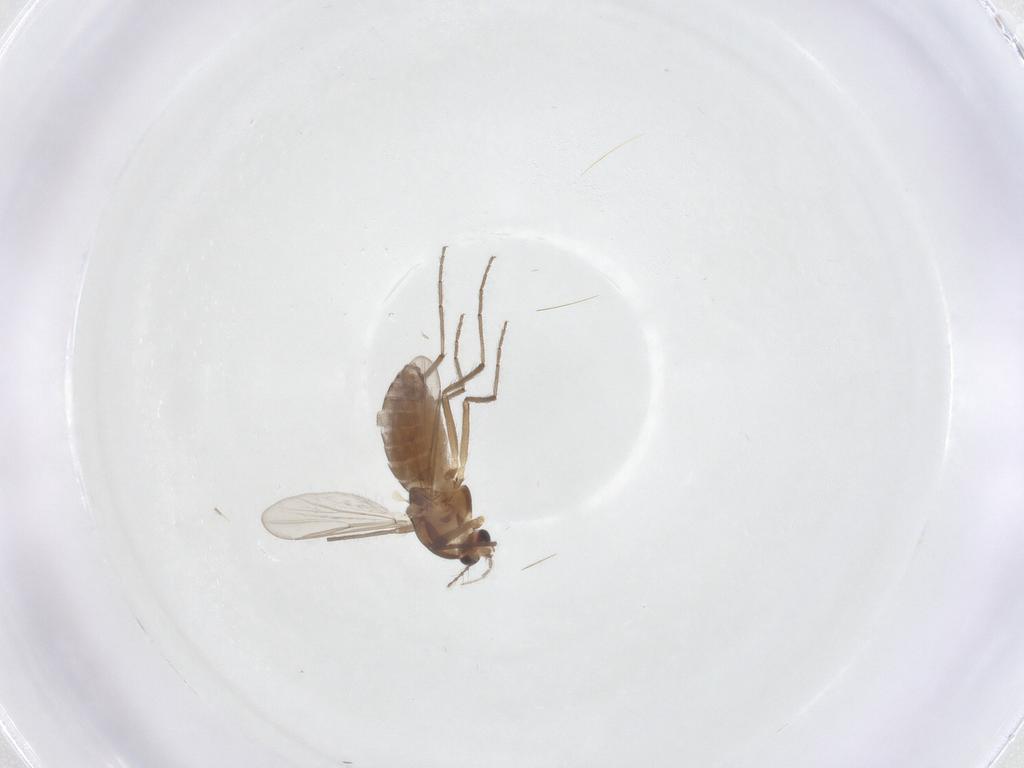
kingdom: Animalia
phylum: Arthropoda
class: Insecta
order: Diptera
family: Chironomidae
